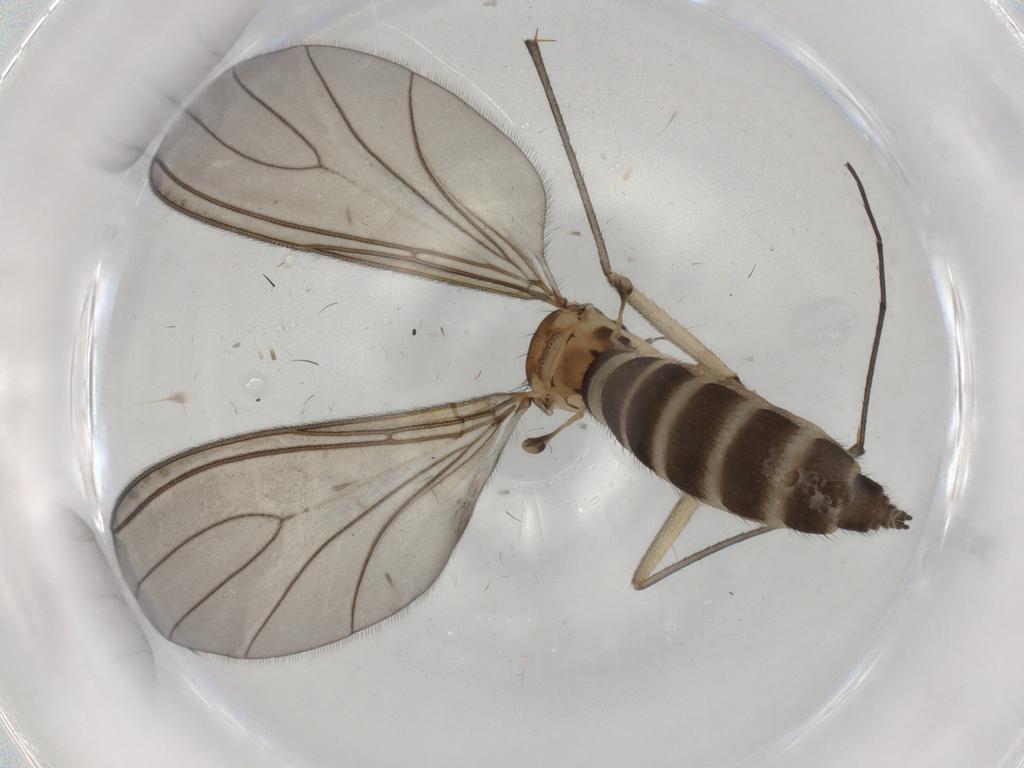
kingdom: Animalia
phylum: Arthropoda
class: Insecta
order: Diptera
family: Sciaridae
